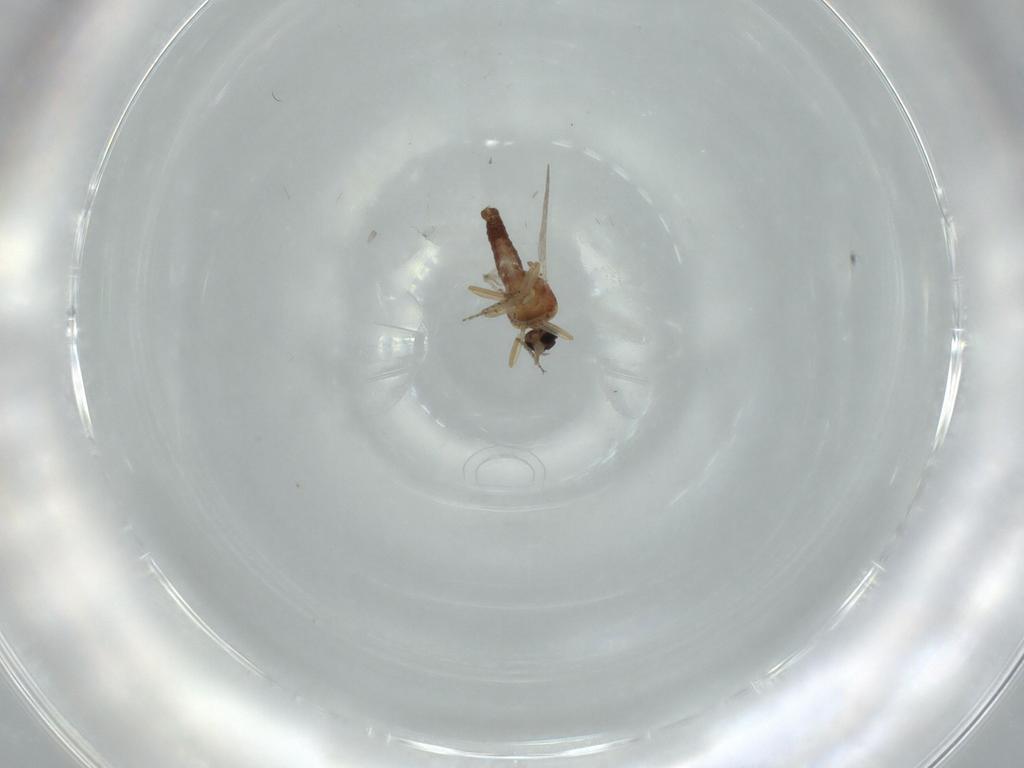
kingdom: Animalia
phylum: Arthropoda
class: Insecta
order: Diptera
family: Ceratopogonidae
